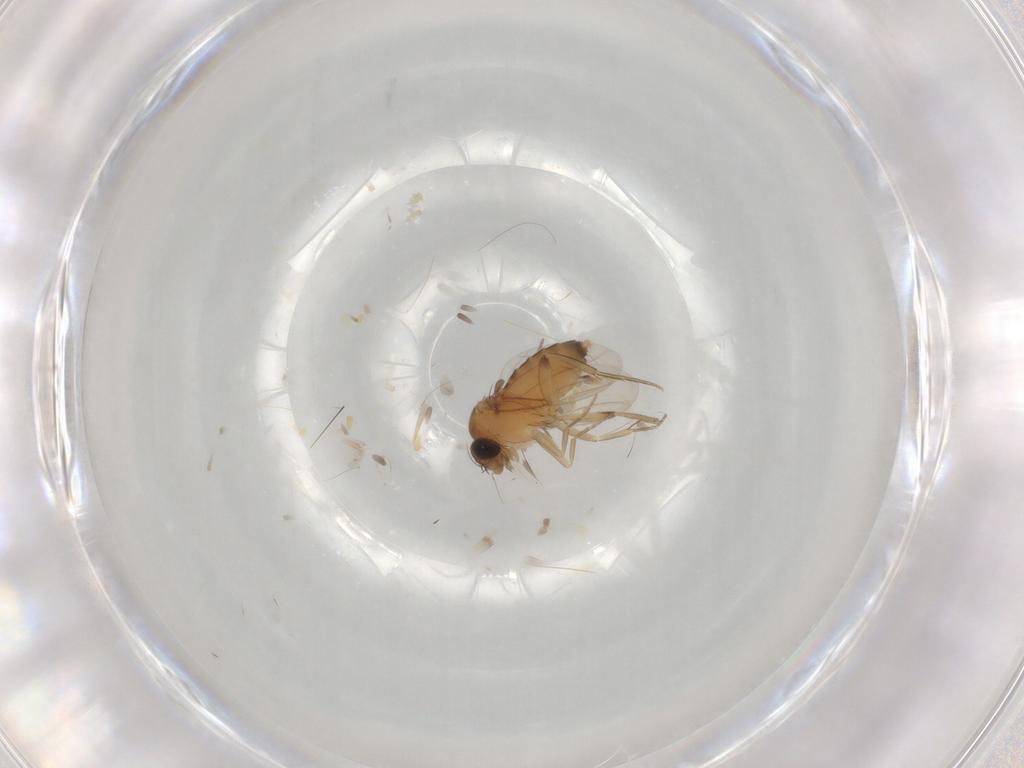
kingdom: Animalia
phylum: Arthropoda
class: Insecta
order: Diptera
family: Phoridae
